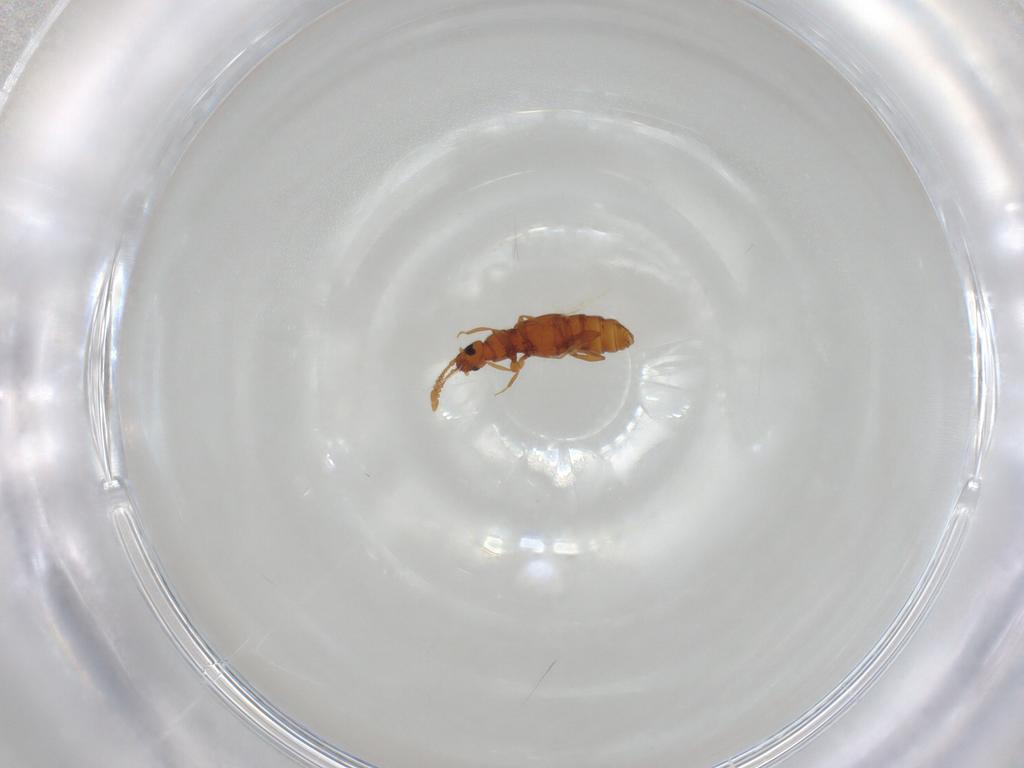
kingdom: Animalia
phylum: Arthropoda
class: Insecta
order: Coleoptera
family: Staphylinidae
